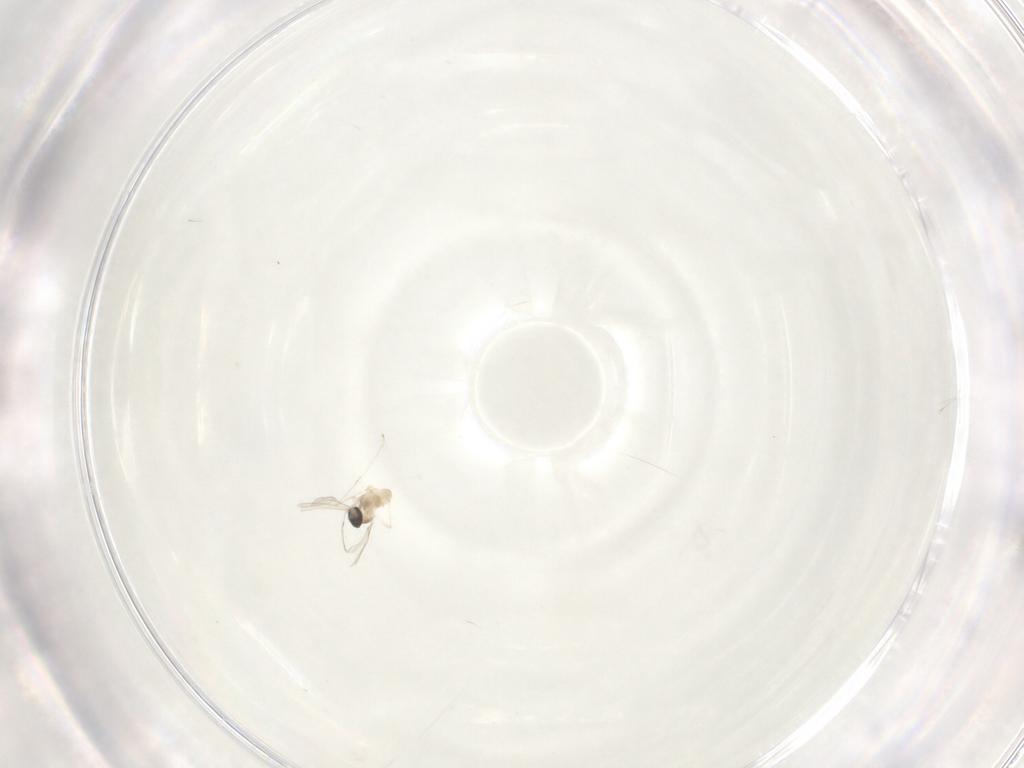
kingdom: Animalia
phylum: Arthropoda
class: Insecta
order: Diptera
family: Cecidomyiidae
